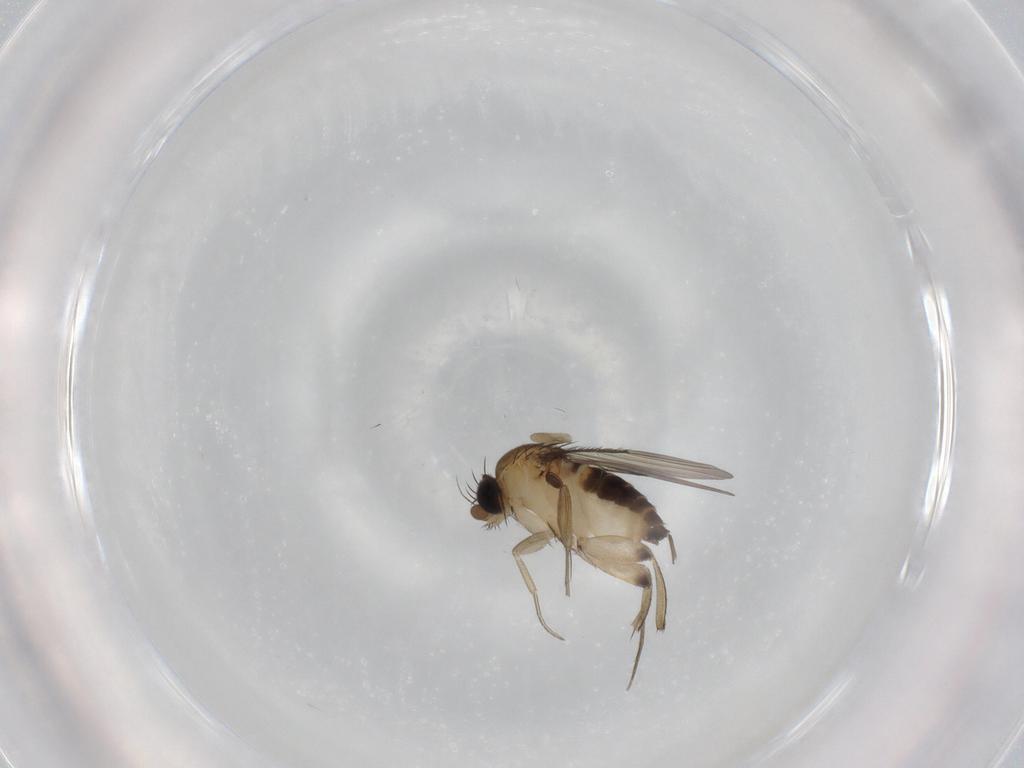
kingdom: Animalia
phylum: Arthropoda
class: Insecta
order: Diptera
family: Phoridae
